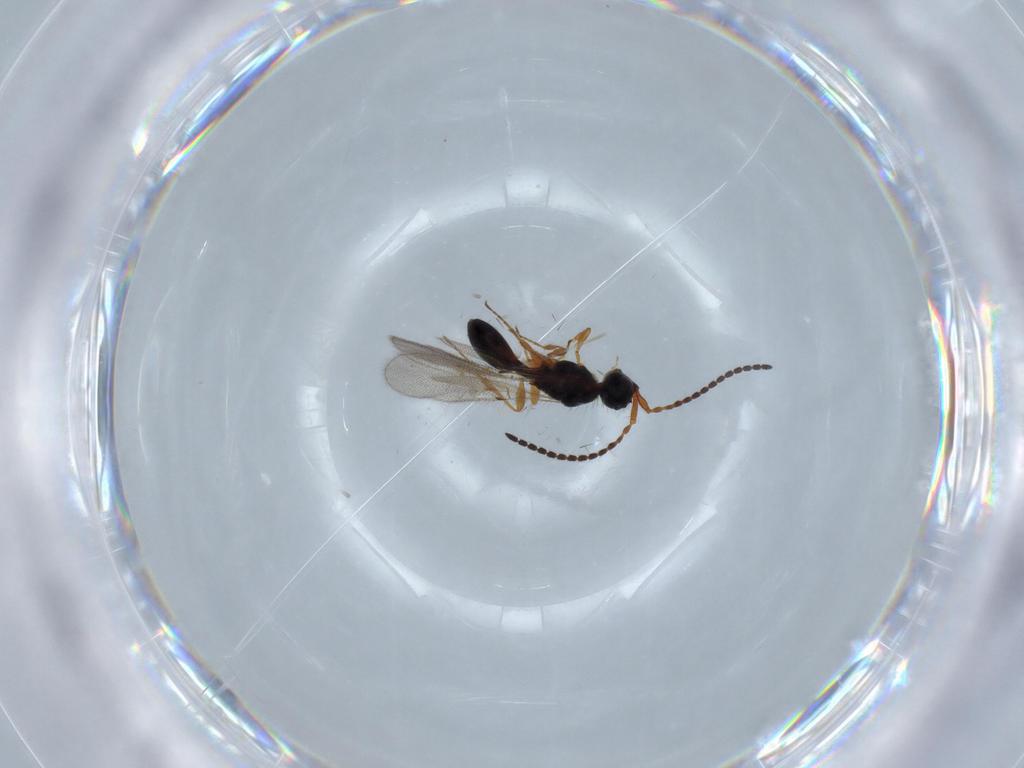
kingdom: Animalia
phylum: Arthropoda
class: Insecta
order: Hymenoptera
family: Diapriidae
